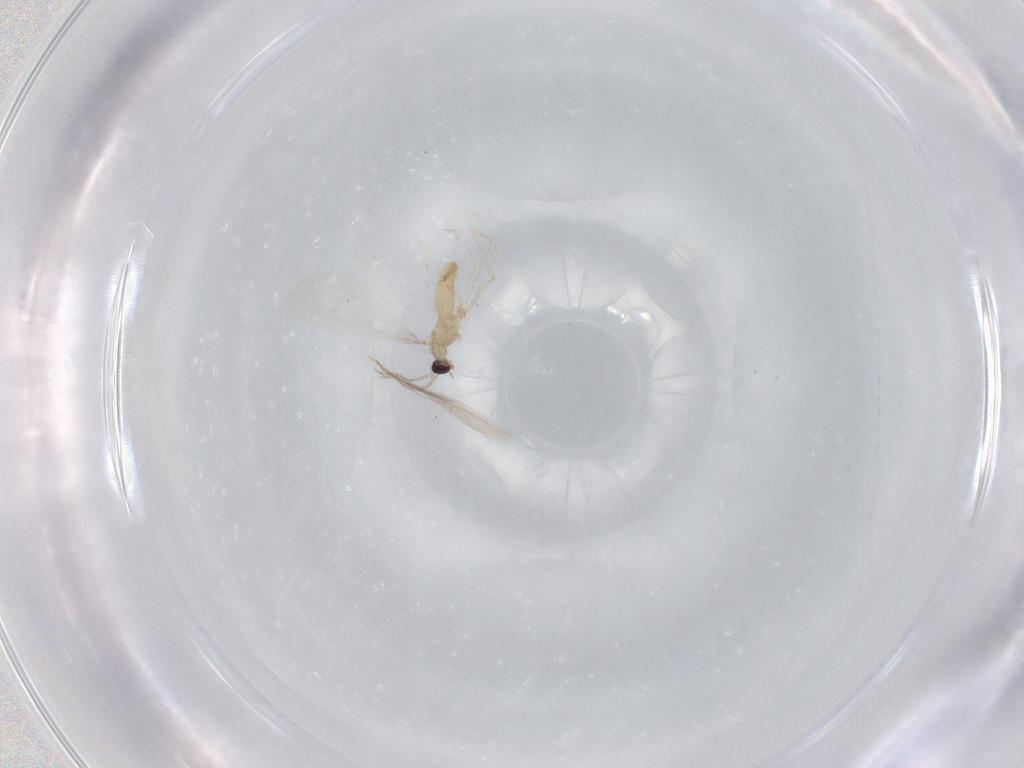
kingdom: Animalia
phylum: Arthropoda
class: Insecta
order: Diptera
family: Cecidomyiidae
